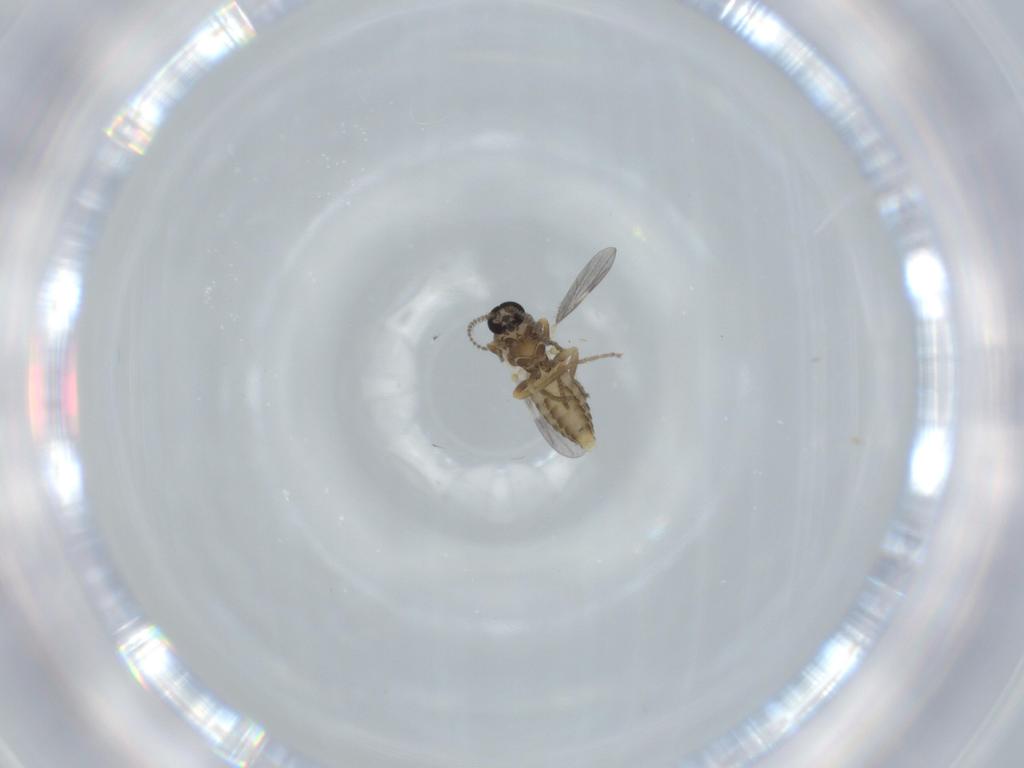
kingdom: Animalia
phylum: Arthropoda
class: Insecta
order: Diptera
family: Ceratopogonidae
